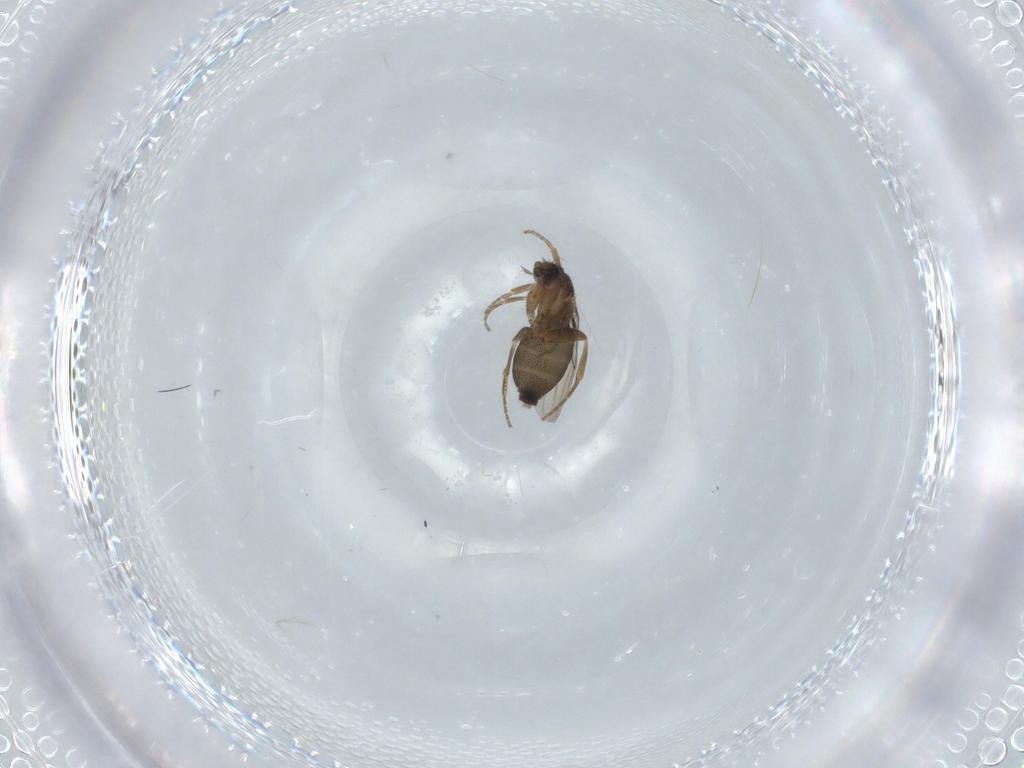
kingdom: Animalia
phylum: Arthropoda
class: Insecta
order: Diptera
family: Phoridae
